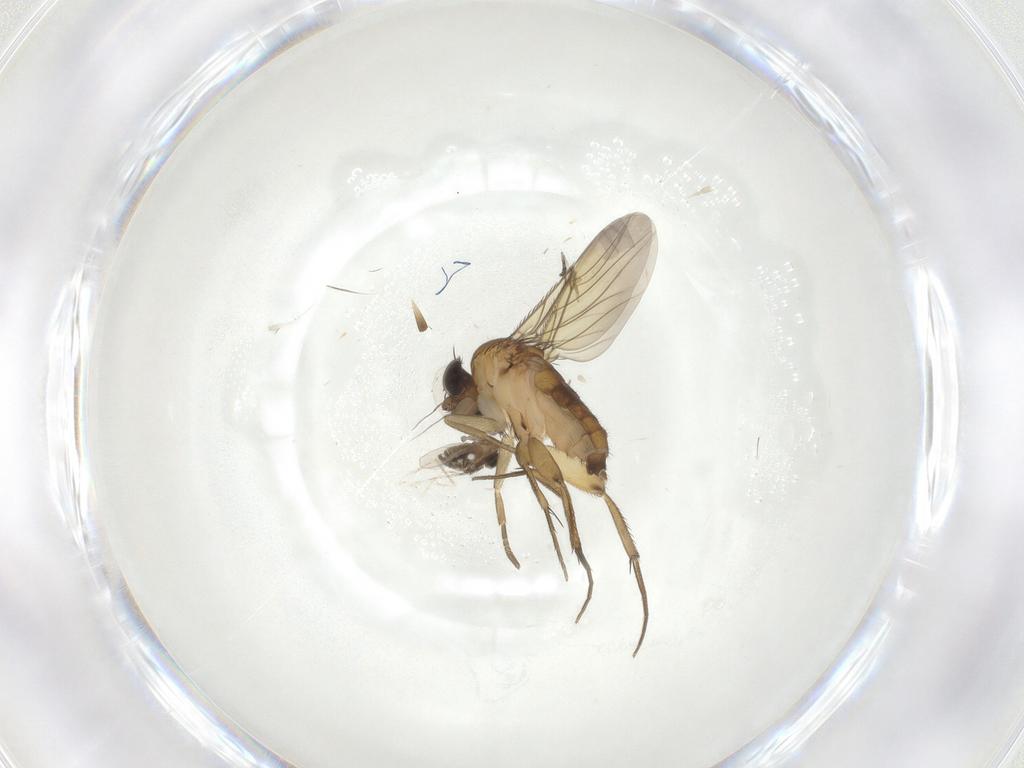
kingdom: Animalia
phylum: Arthropoda
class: Insecta
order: Diptera
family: Phoridae
